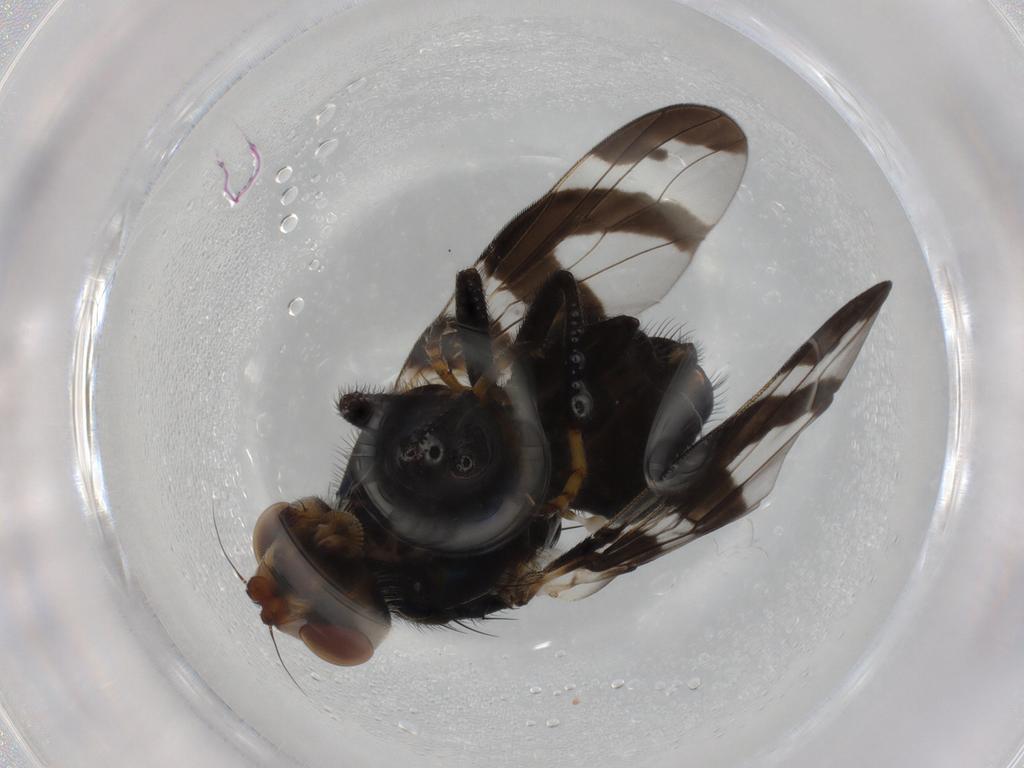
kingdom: Animalia
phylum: Arthropoda
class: Insecta
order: Diptera
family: Platystomatidae
